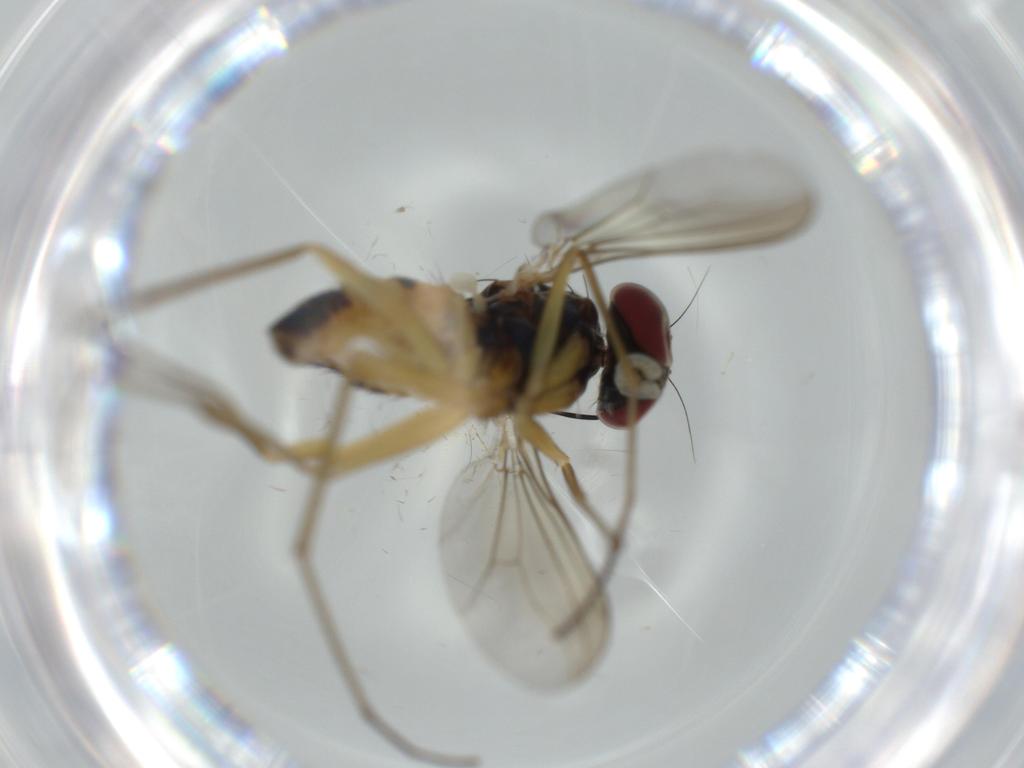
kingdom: Animalia
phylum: Arthropoda
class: Insecta
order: Diptera
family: Dolichopodidae
